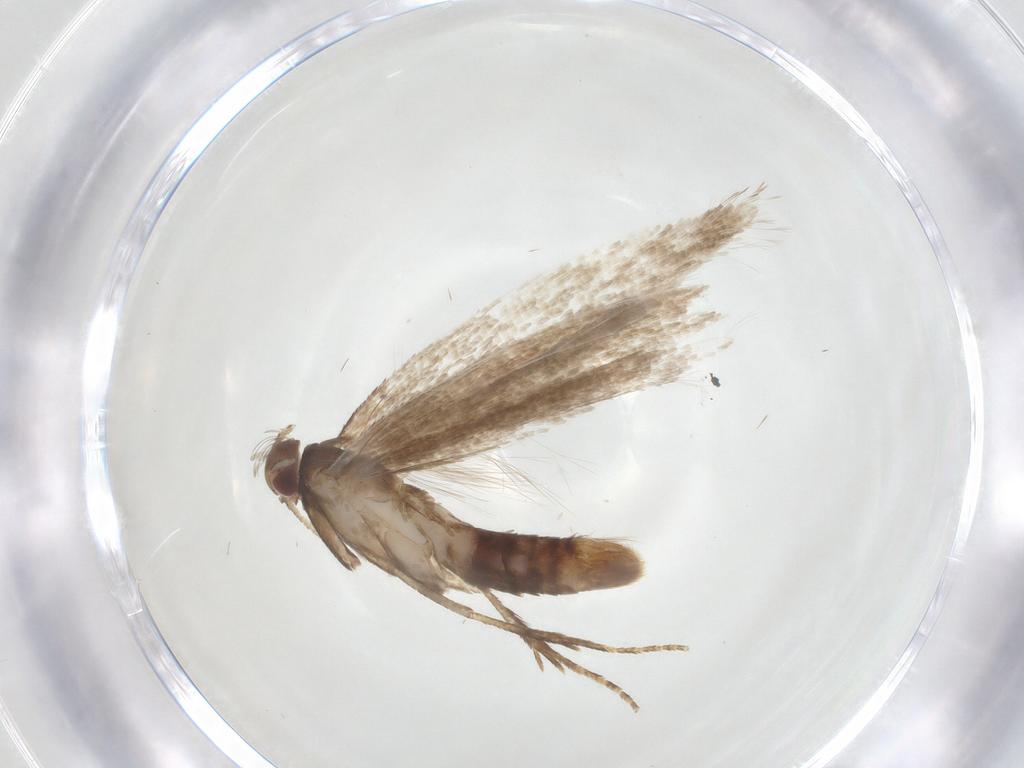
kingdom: Animalia
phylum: Arthropoda
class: Insecta
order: Lepidoptera
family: Gelechiidae
